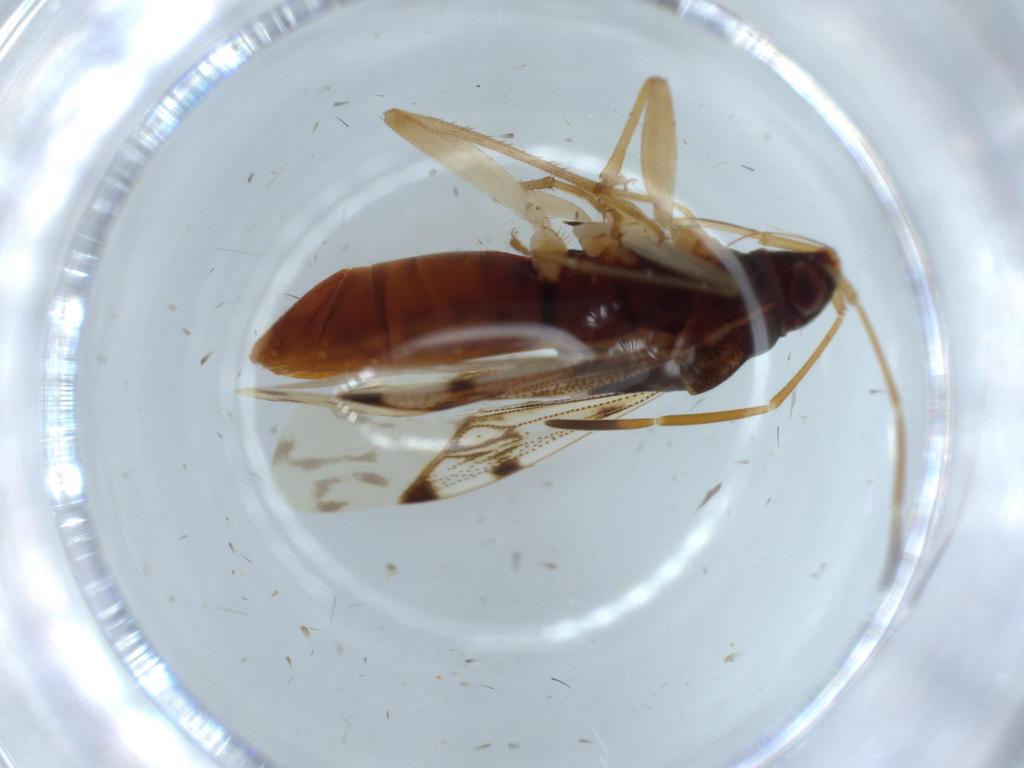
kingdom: Animalia
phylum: Arthropoda
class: Insecta
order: Hemiptera
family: Rhyparochromidae
